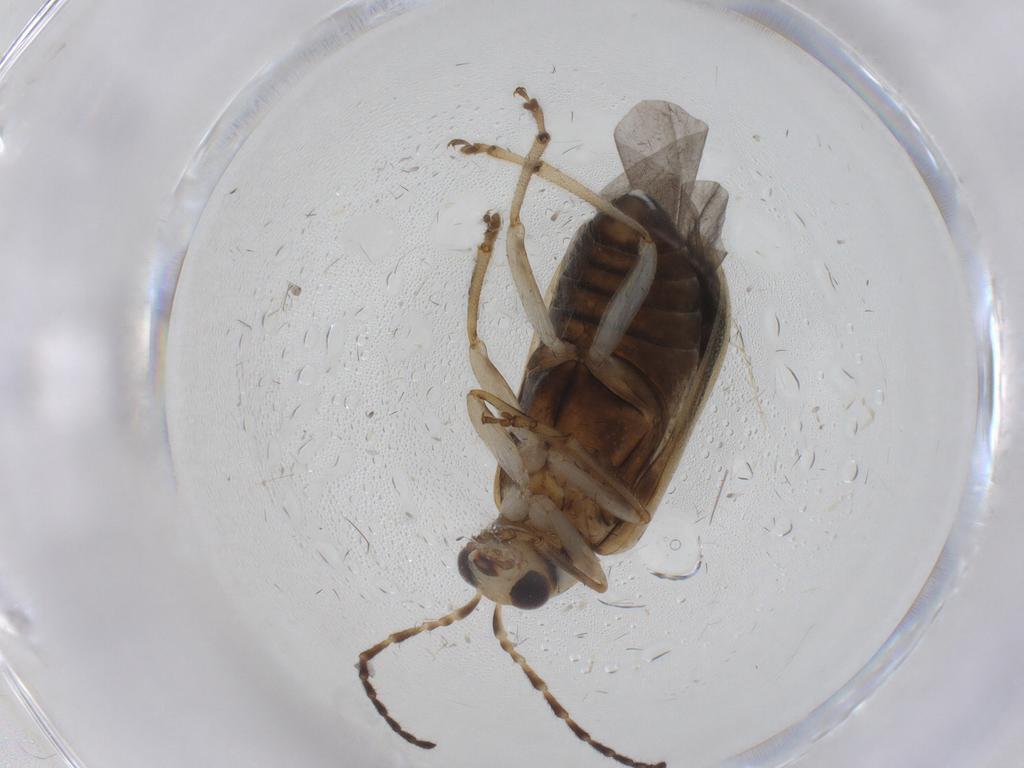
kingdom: Animalia
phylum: Arthropoda
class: Insecta
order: Coleoptera
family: Chrysomelidae
